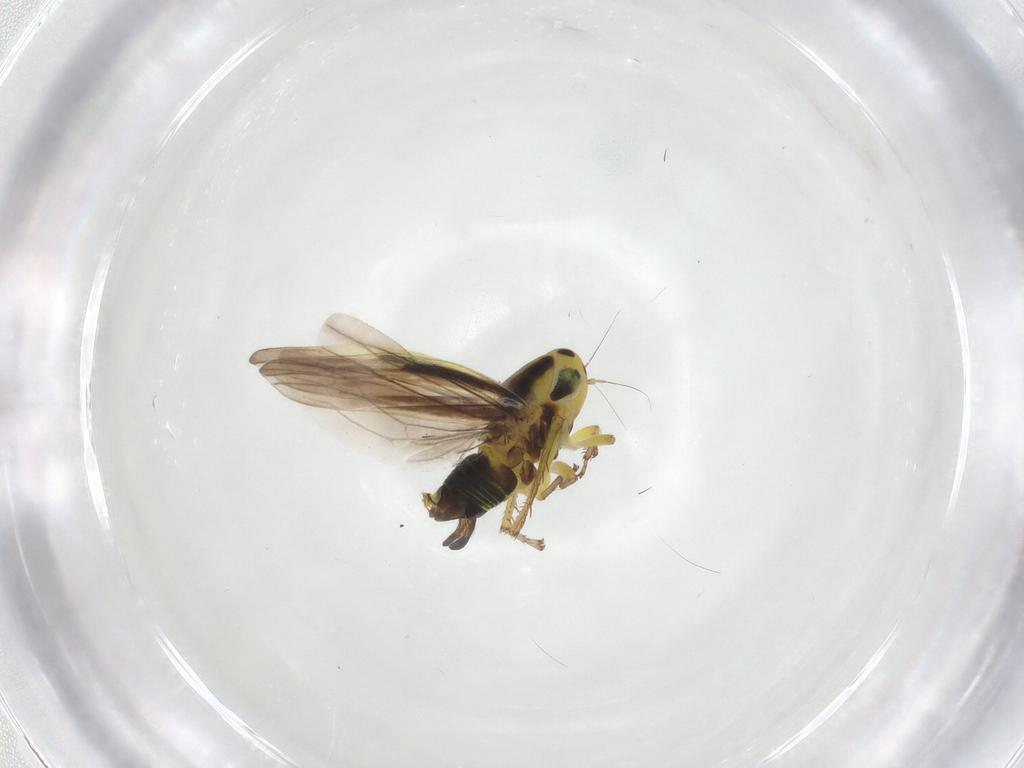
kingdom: Animalia
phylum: Arthropoda
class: Insecta
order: Hemiptera
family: Cicadellidae
